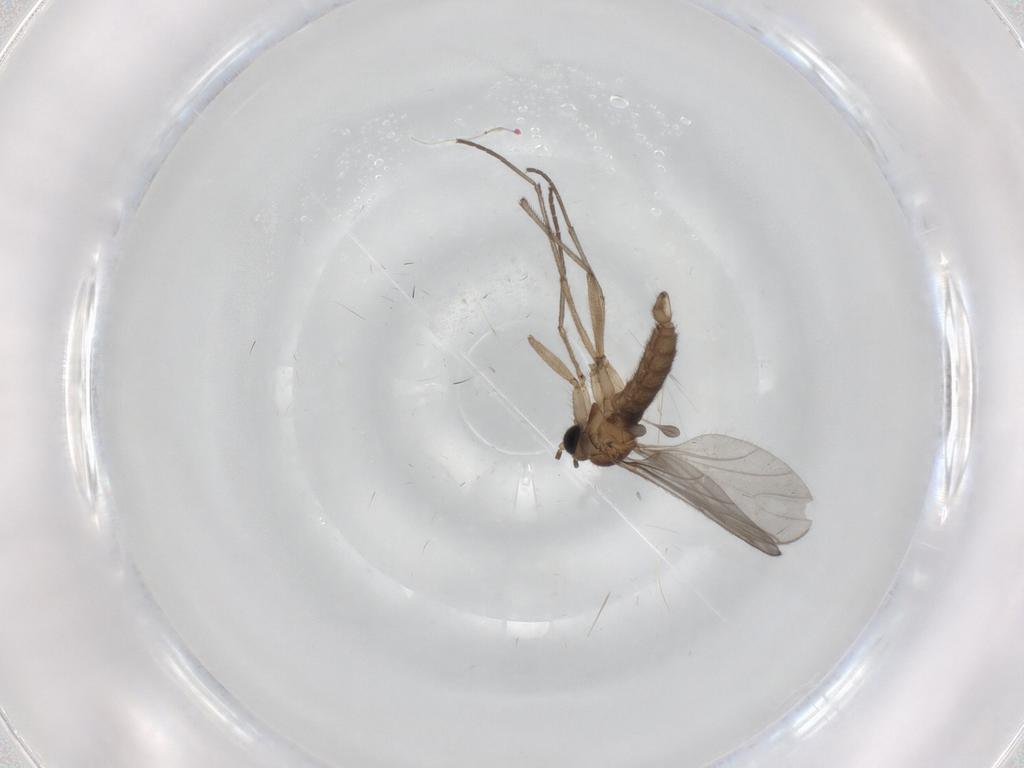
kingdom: Animalia
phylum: Arthropoda
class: Insecta
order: Diptera
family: Cecidomyiidae
